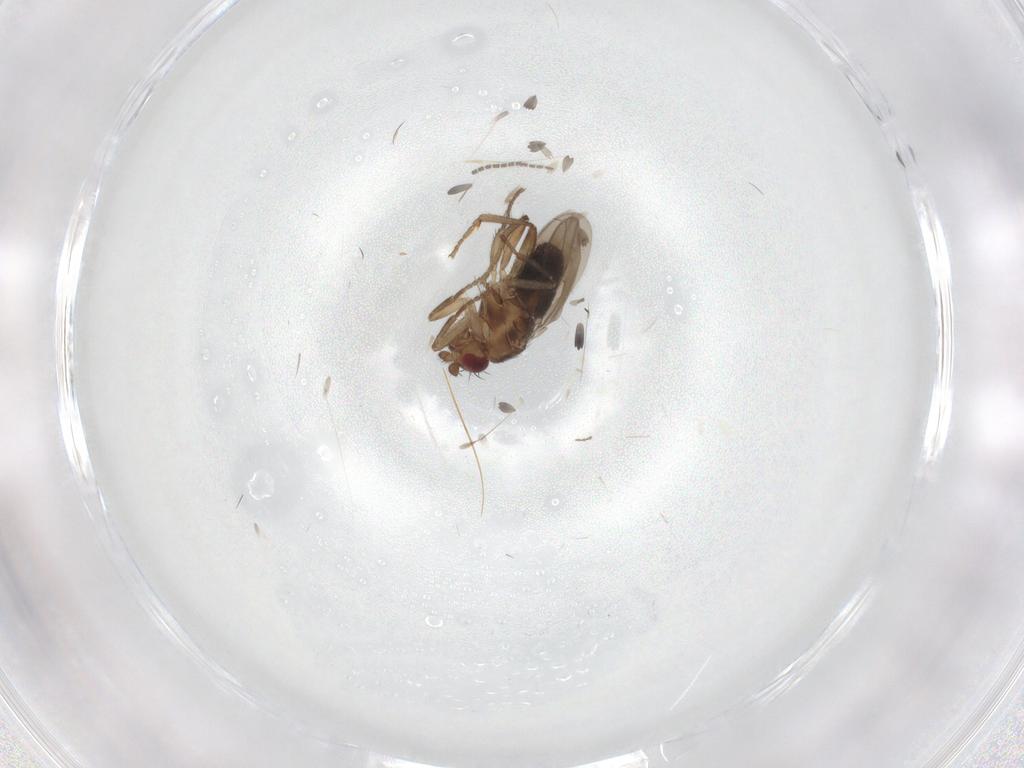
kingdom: Animalia
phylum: Arthropoda
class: Insecta
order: Diptera
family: Sphaeroceridae
